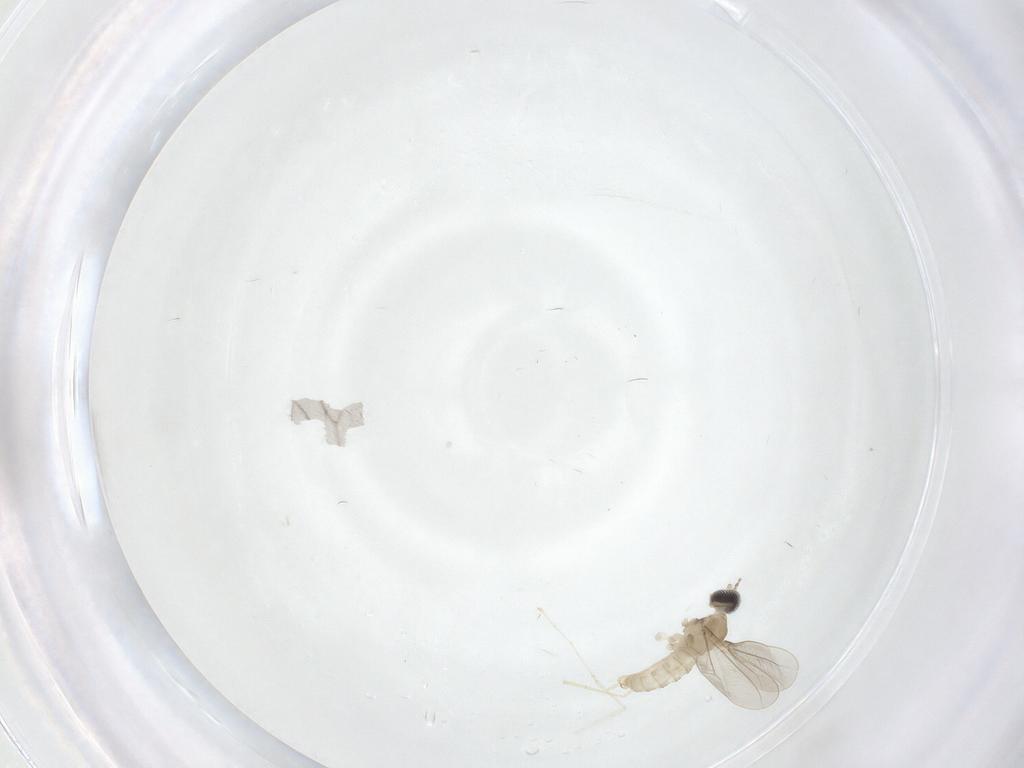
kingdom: Animalia
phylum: Arthropoda
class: Insecta
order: Diptera
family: Cecidomyiidae
